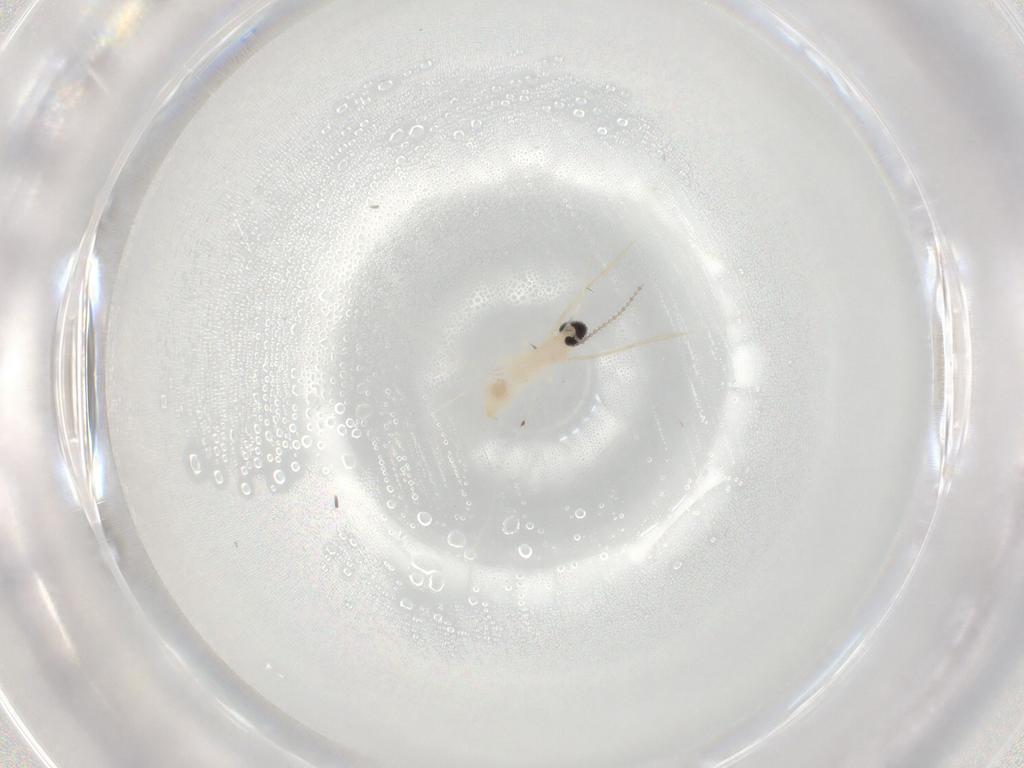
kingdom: Animalia
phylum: Arthropoda
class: Insecta
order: Diptera
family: Cecidomyiidae
